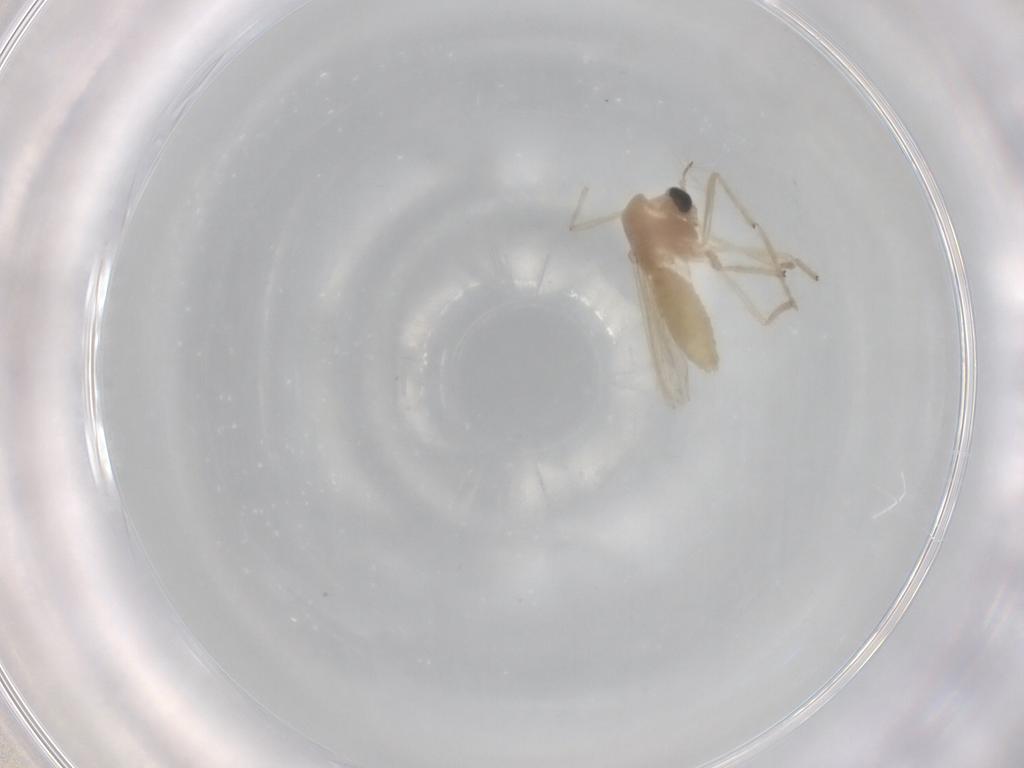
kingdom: Animalia
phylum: Arthropoda
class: Insecta
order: Diptera
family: Chironomidae
